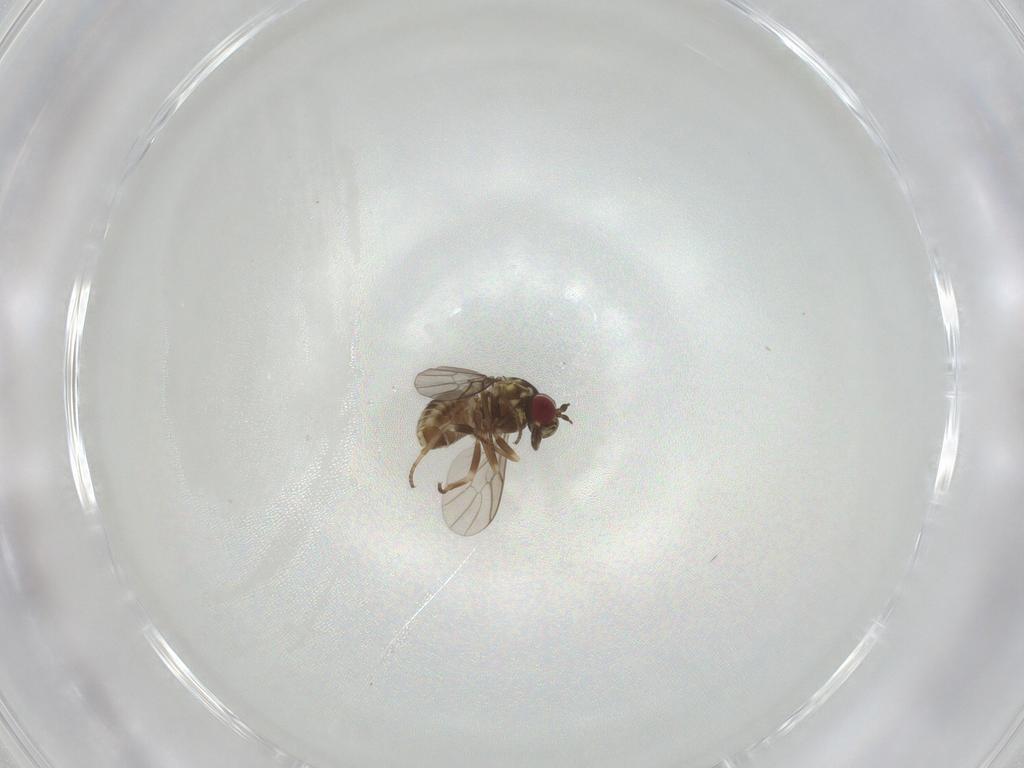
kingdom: Animalia
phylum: Arthropoda
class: Insecta
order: Diptera
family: Bombyliidae
